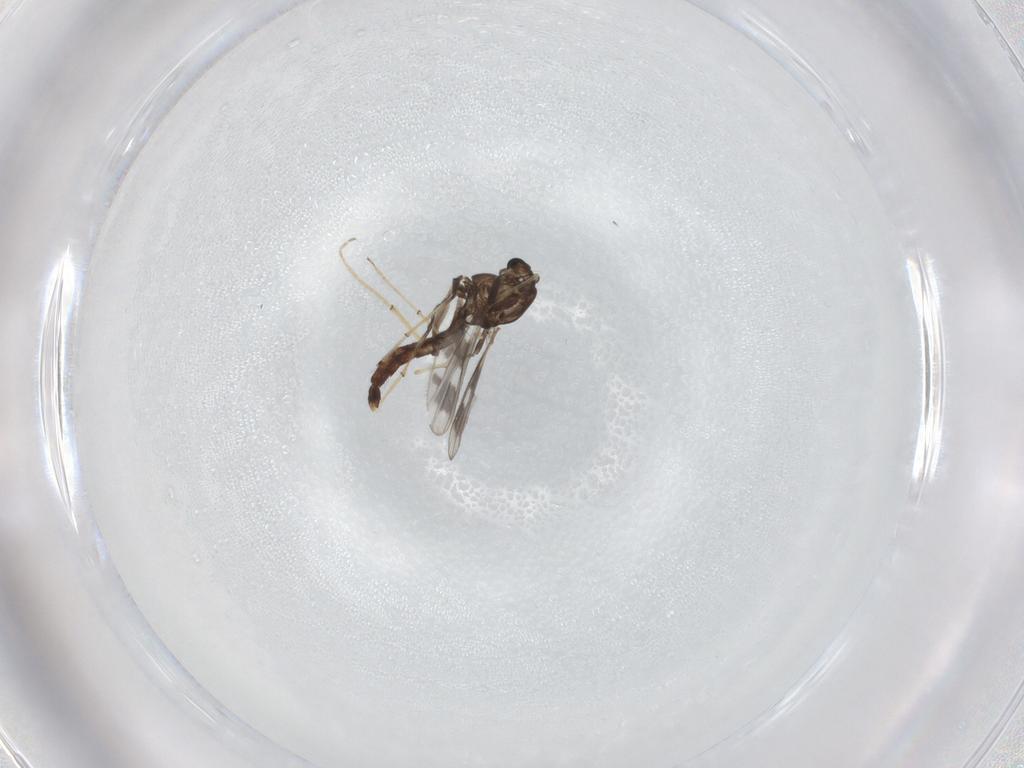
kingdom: Animalia
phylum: Arthropoda
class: Insecta
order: Diptera
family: Chironomidae
